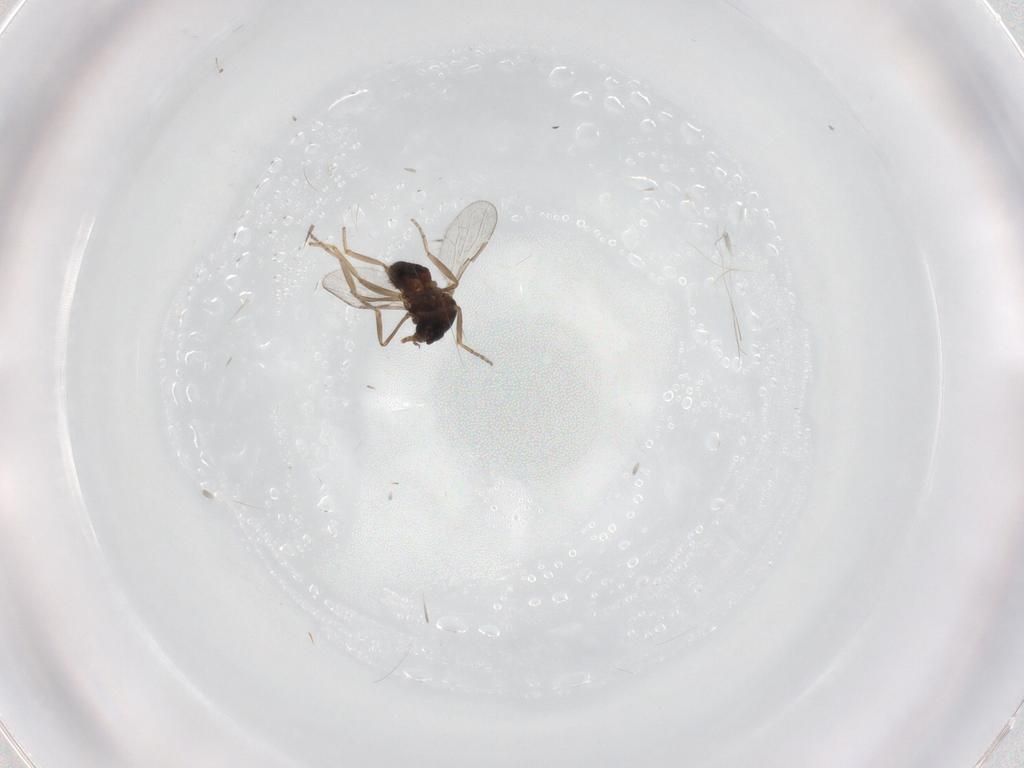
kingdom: Animalia
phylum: Arthropoda
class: Insecta
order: Diptera
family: Ceratopogonidae
